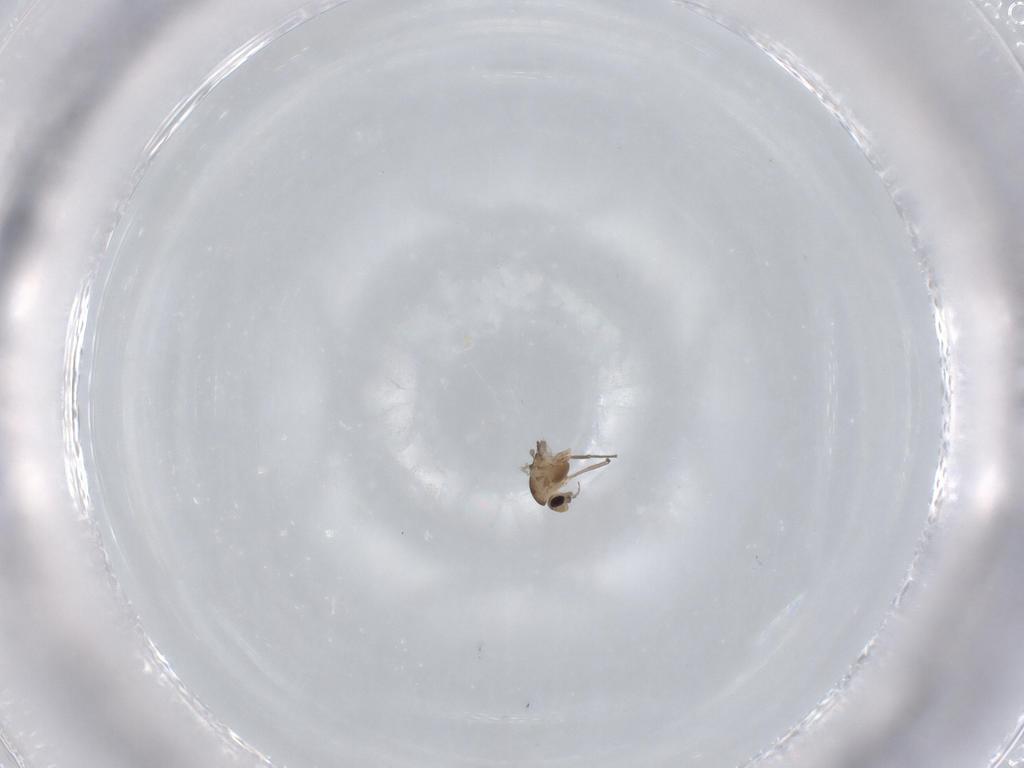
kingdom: Animalia
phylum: Arthropoda
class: Insecta
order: Diptera
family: Chironomidae
